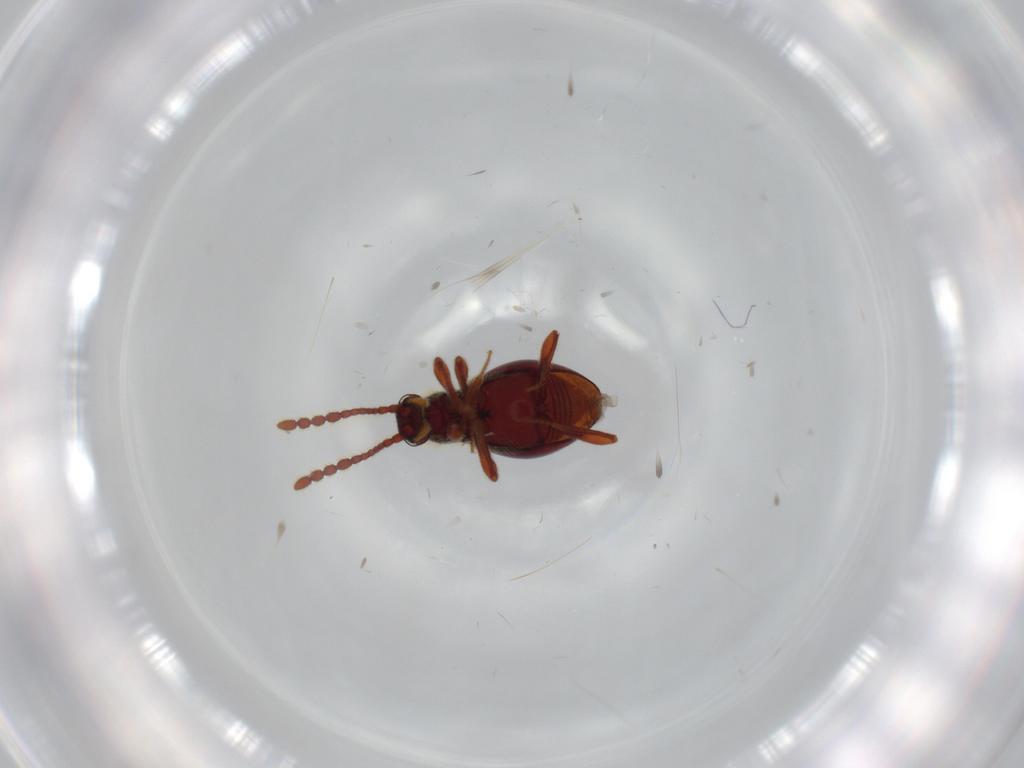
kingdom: Animalia
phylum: Arthropoda
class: Insecta
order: Coleoptera
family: Staphylinidae
